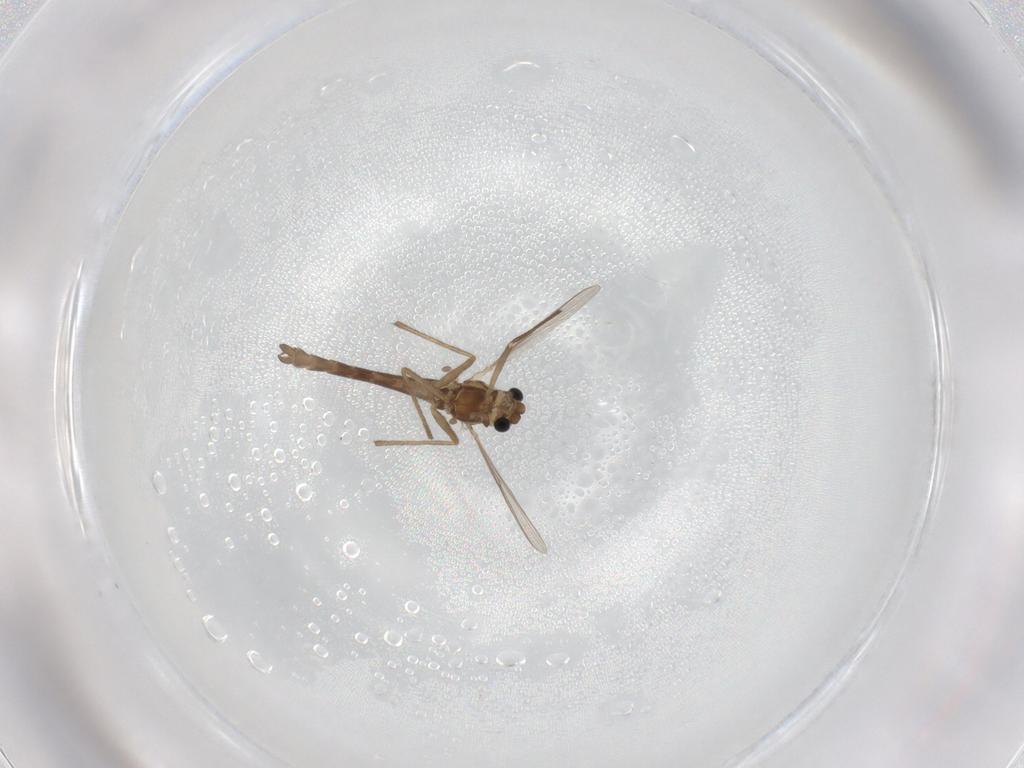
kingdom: Animalia
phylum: Arthropoda
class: Insecta
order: Diptera
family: Chironomidae
